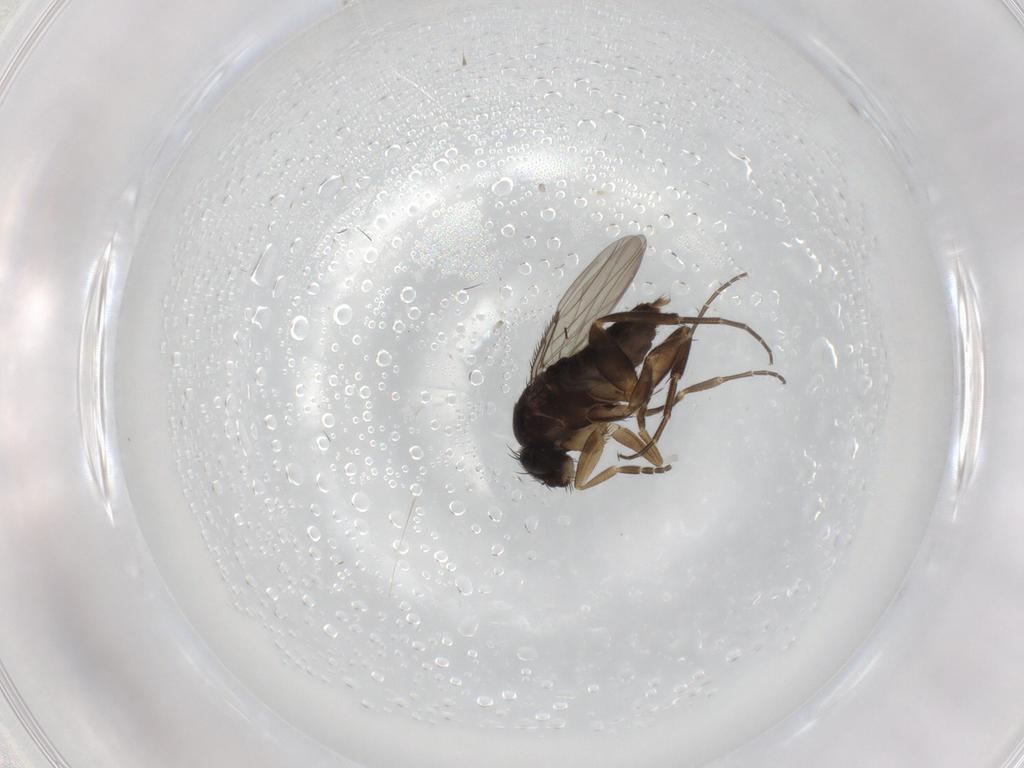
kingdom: Animalia
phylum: Arthropoda
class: Insecta
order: Diptera
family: Phoridae
